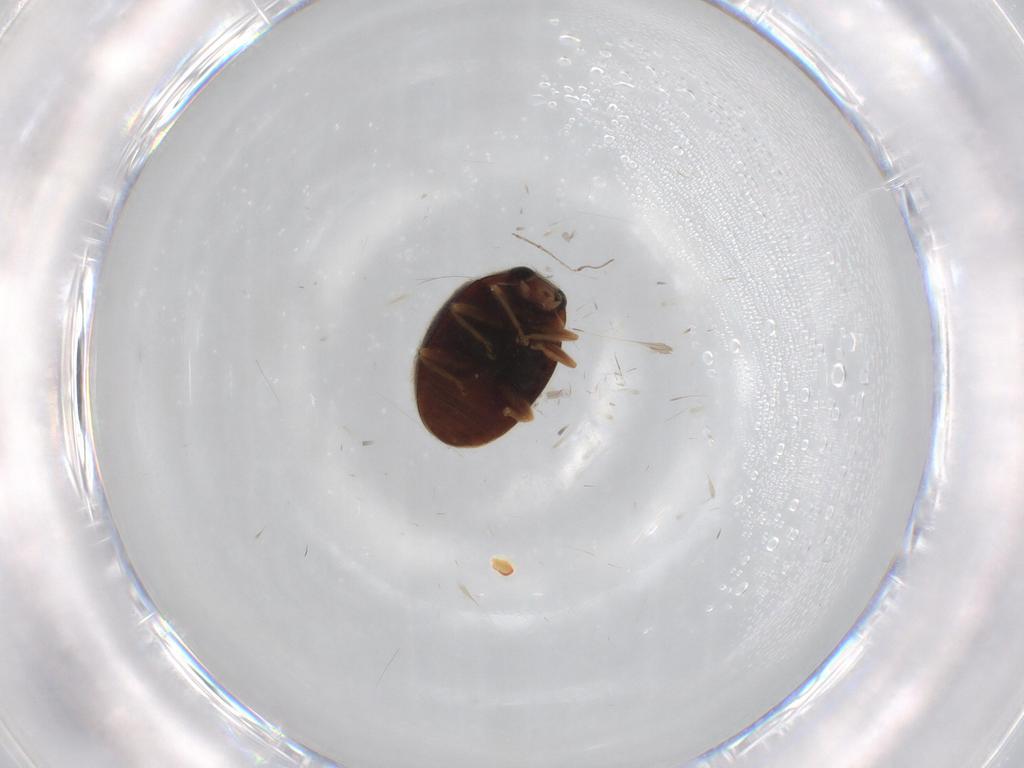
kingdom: Animalia
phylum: Arthropoda
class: Insecta
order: Coleoptera
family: Coccinellidae
